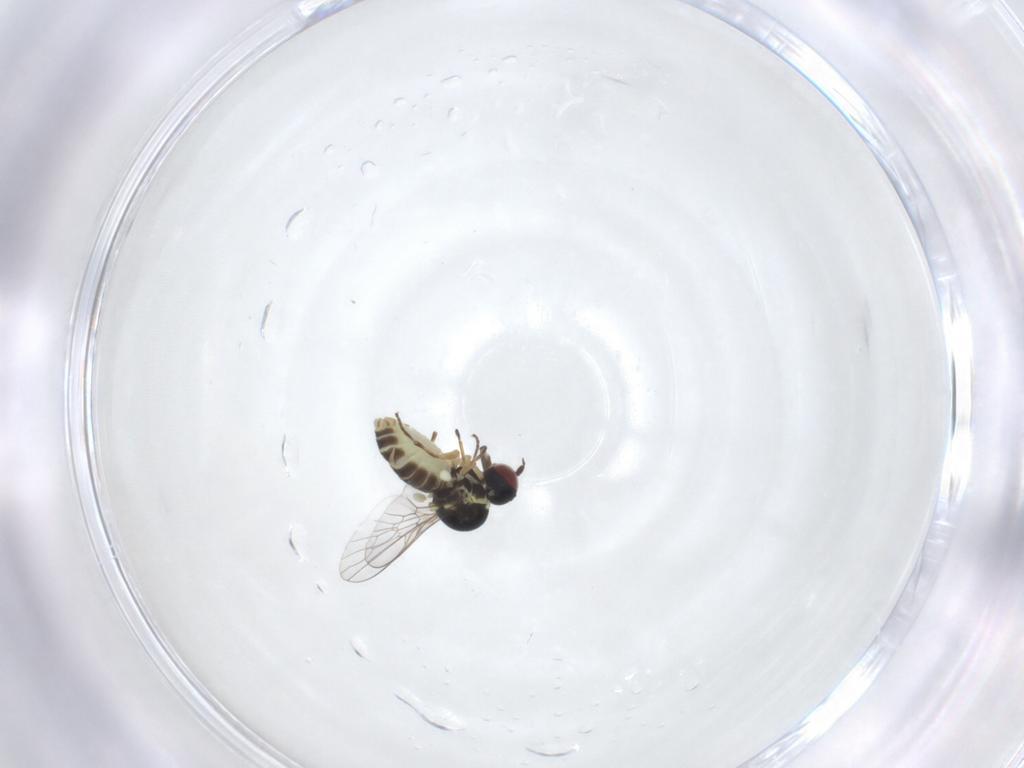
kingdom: Animalia
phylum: Arthropoda
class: Insecta
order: Diptera
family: Mythicomyiidae
